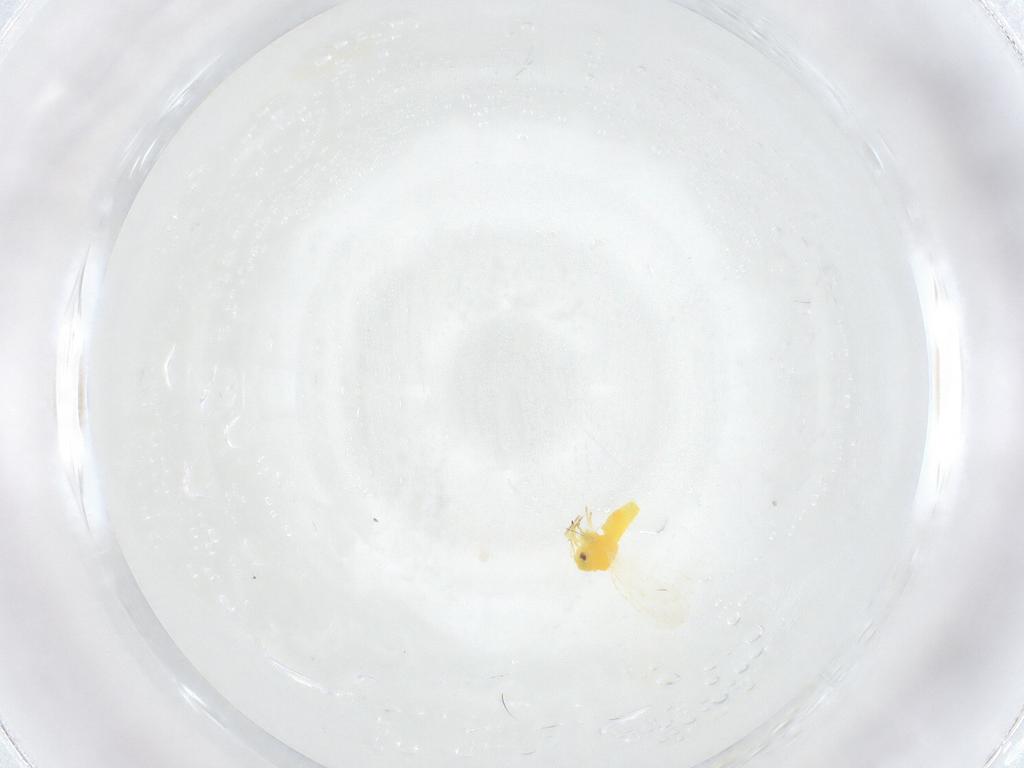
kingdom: Animalia
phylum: Arthropoda
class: Insecta
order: Hemiptera
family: Aleyrodidae
